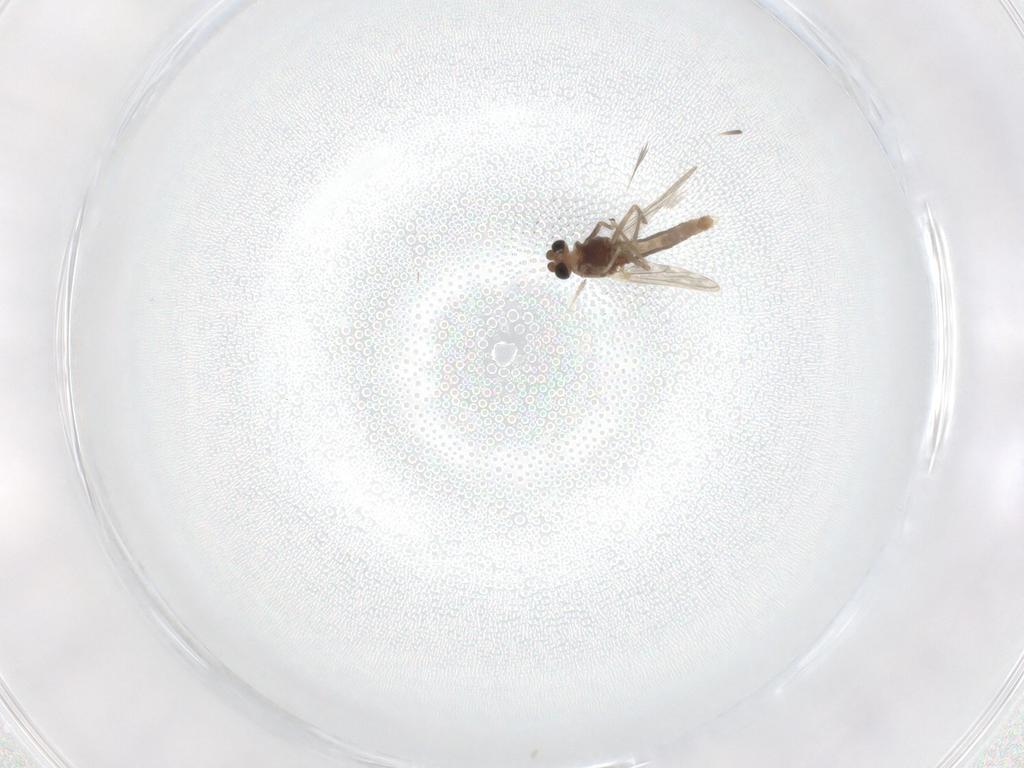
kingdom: Animalia
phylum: Arthropoda
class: Insecta
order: Diptera
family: Chironomidae
